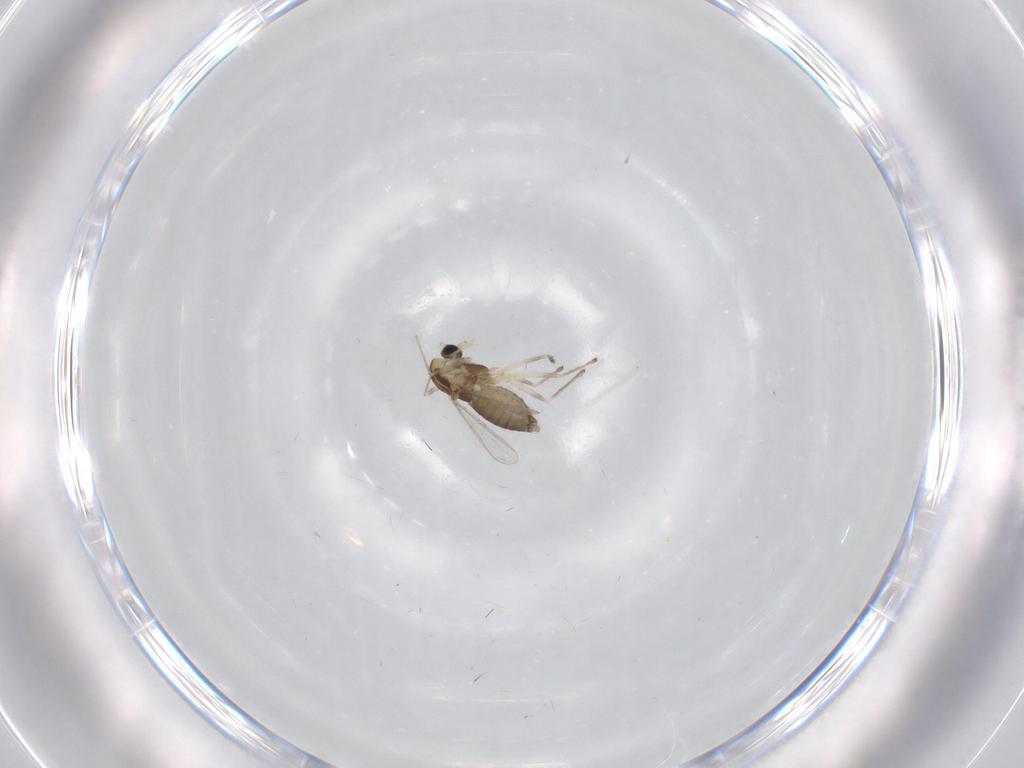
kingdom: Animalia
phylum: Arthropoda
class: Insecta
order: Diptera
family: Chironomidae
